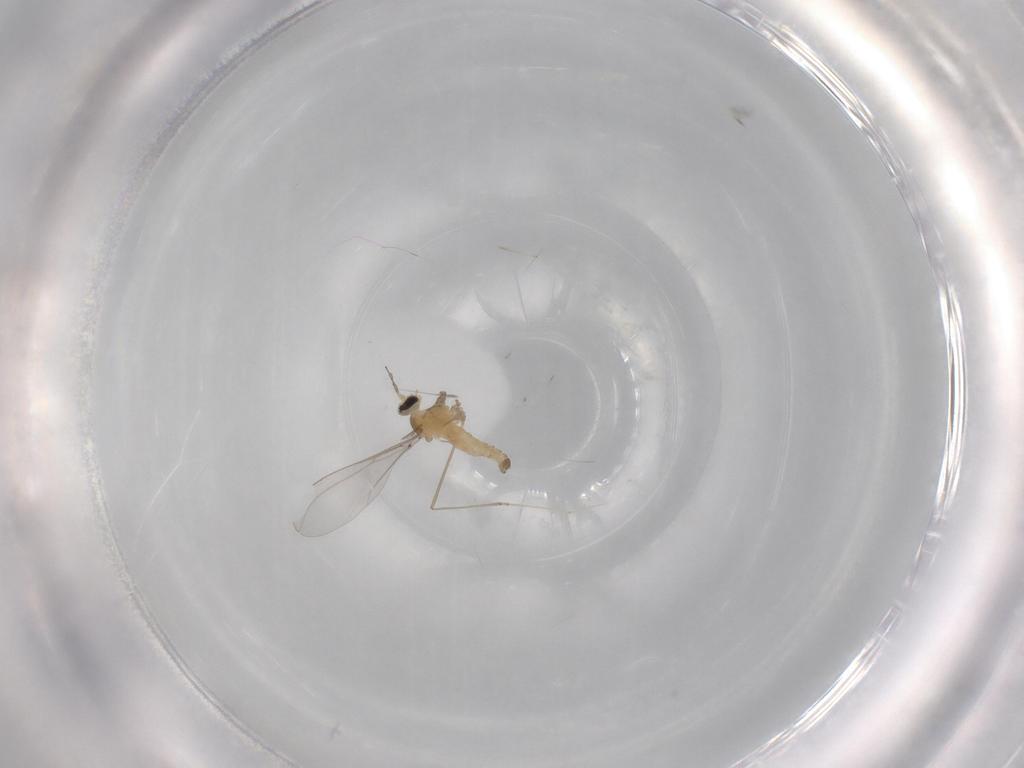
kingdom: Animalia
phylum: Arthropoda
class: Insecta
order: Diptera
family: Cecidomyiidae
